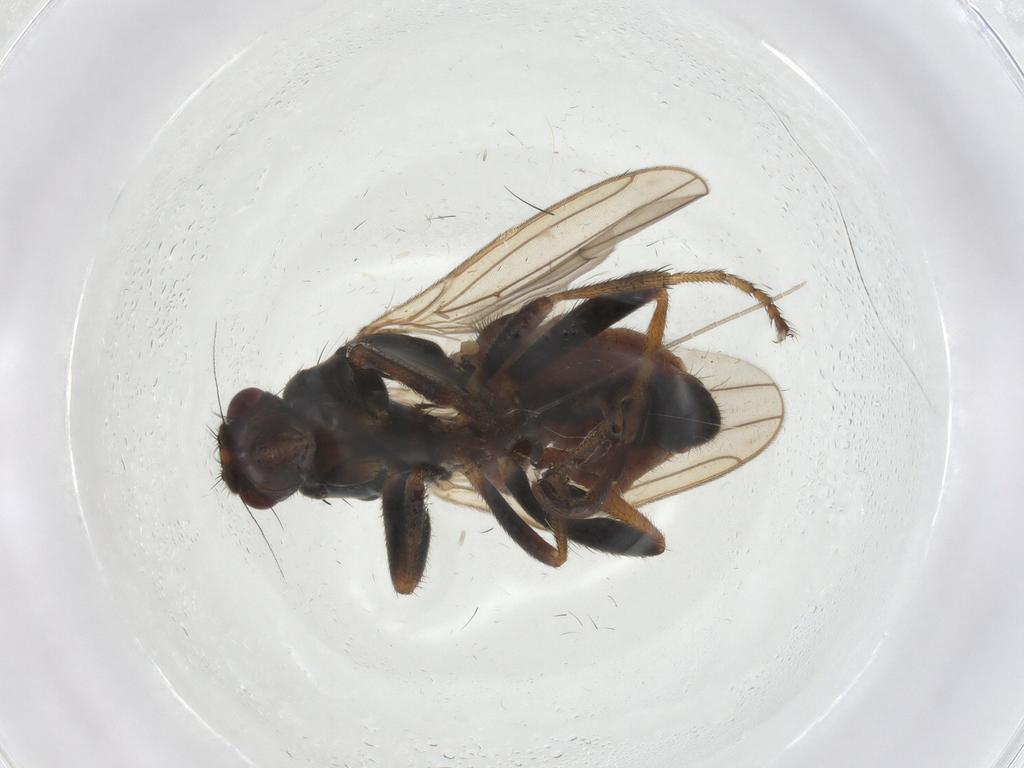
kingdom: Animalia
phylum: Arthropoda
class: Insecta
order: Diptera
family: Sphaeroceridae
